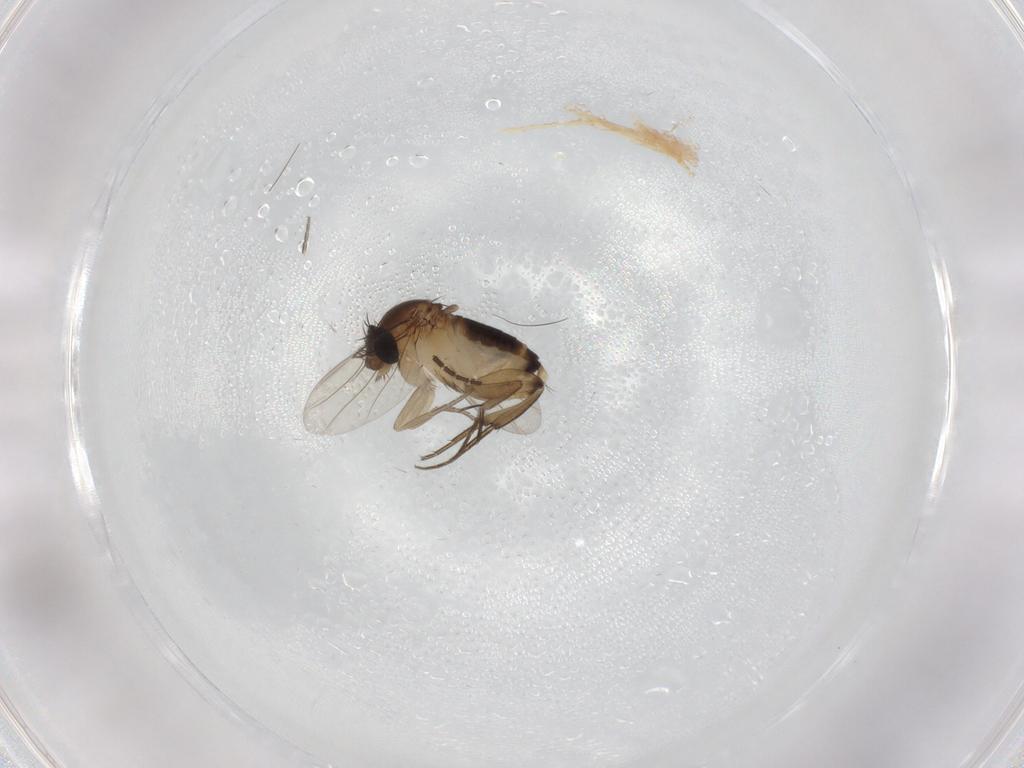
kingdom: Animalia
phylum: Arthropoda
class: Insecta
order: Diptera
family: Phoridae
